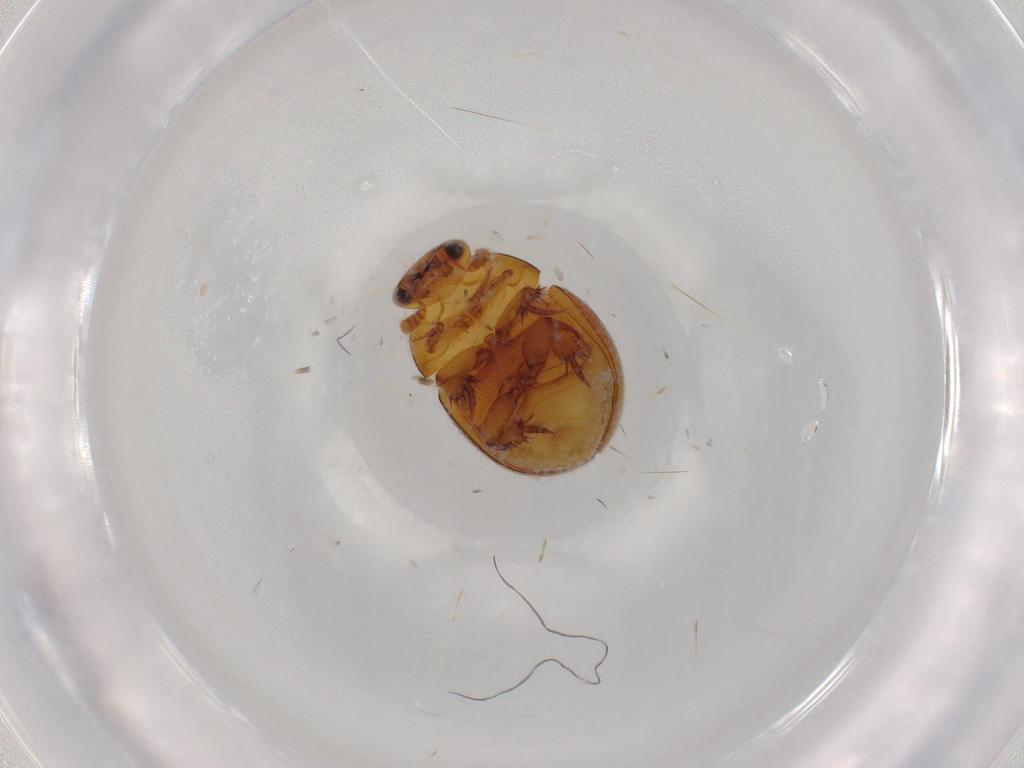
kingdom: Animalia
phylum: Arthropoda
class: Insecta
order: Coleoptera
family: Leiodidae
